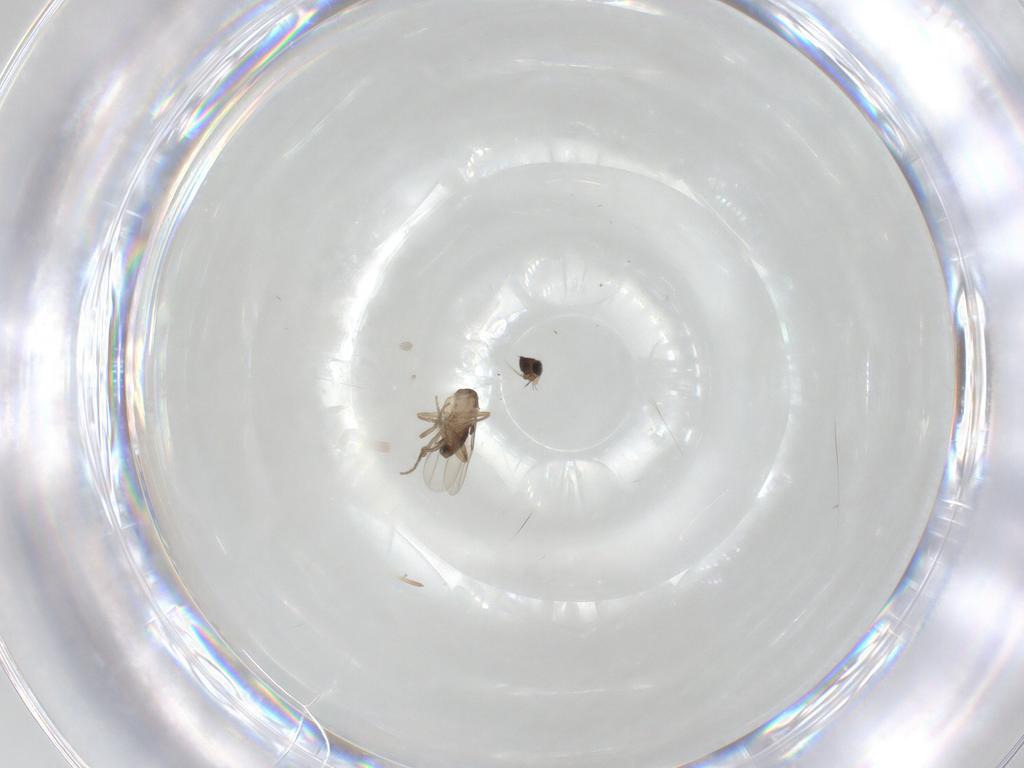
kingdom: Animalia
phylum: Arthropoda
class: Insecta
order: Diptera
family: Phoridae
